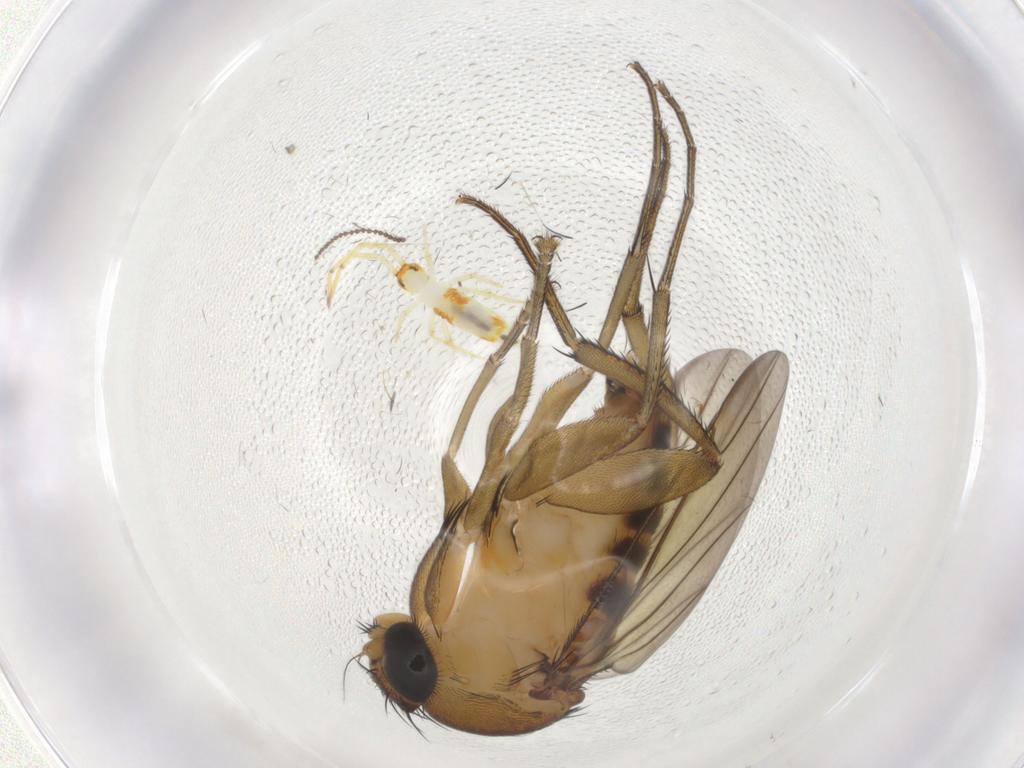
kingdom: Animalia
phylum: Arthropoda
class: Insecta
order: Diptera
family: Phoridae
